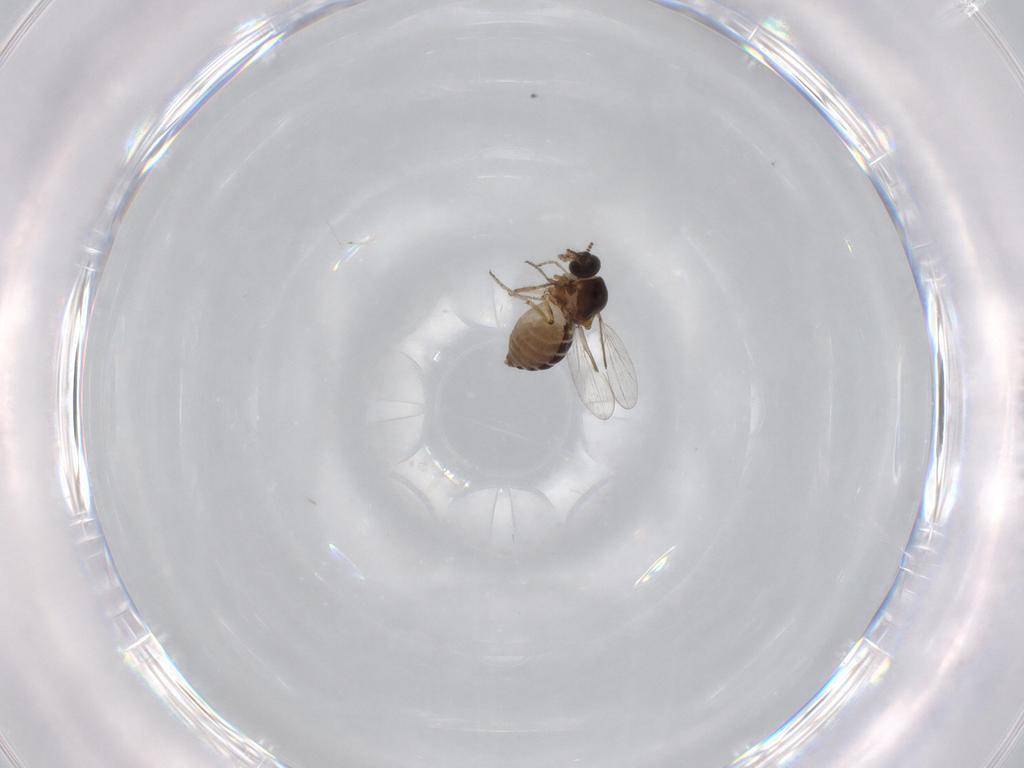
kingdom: Animalia
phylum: Arthropoda
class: Insecta
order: Diptera
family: Ceratopogonidae
